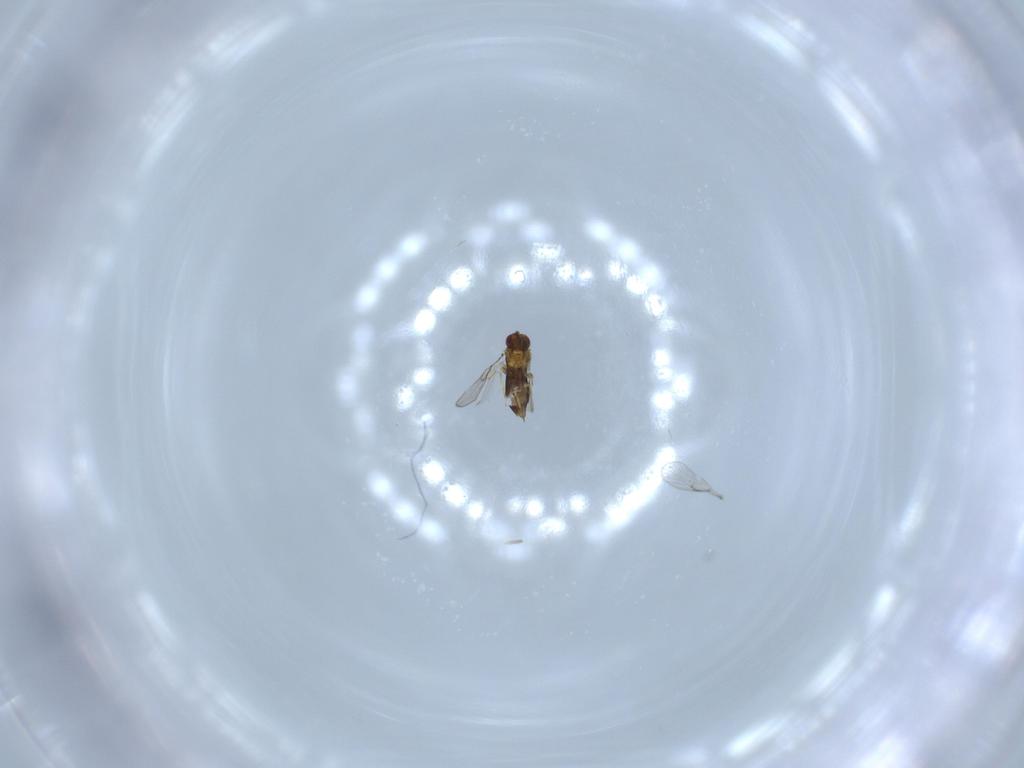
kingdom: Animalia
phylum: Arthropoda
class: Insecta
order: Hymenoptera
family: Trichogrammatidae
